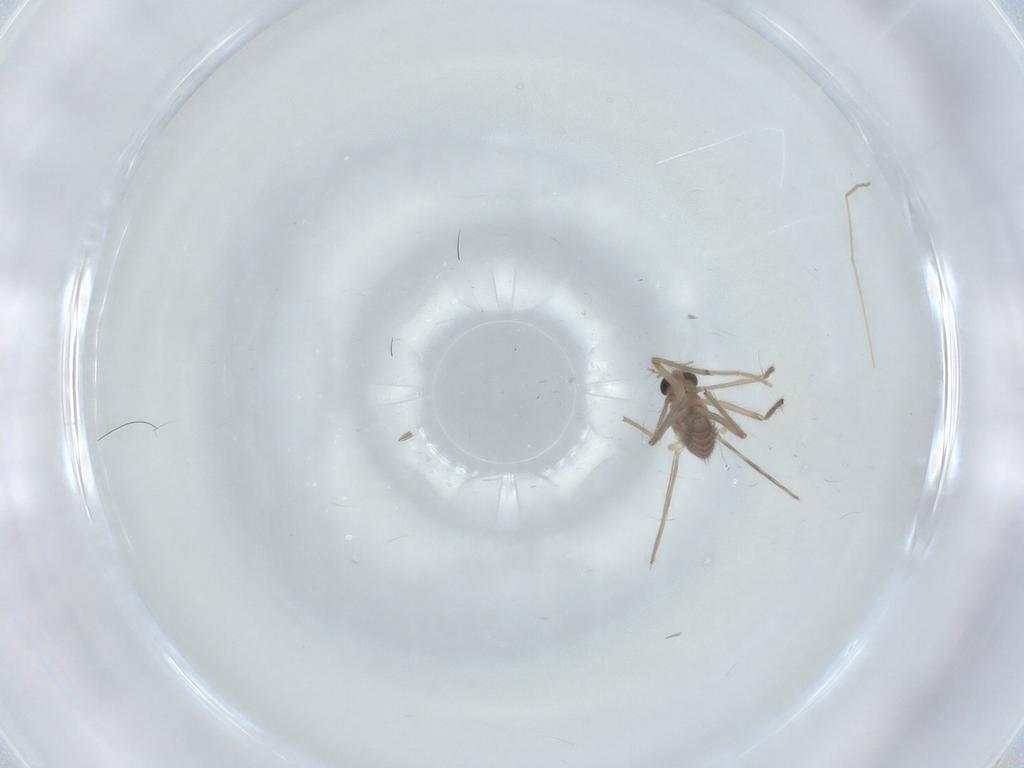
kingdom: Animalia
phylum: Arthropoda
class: Insecta
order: Diptera
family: Chironomidae
